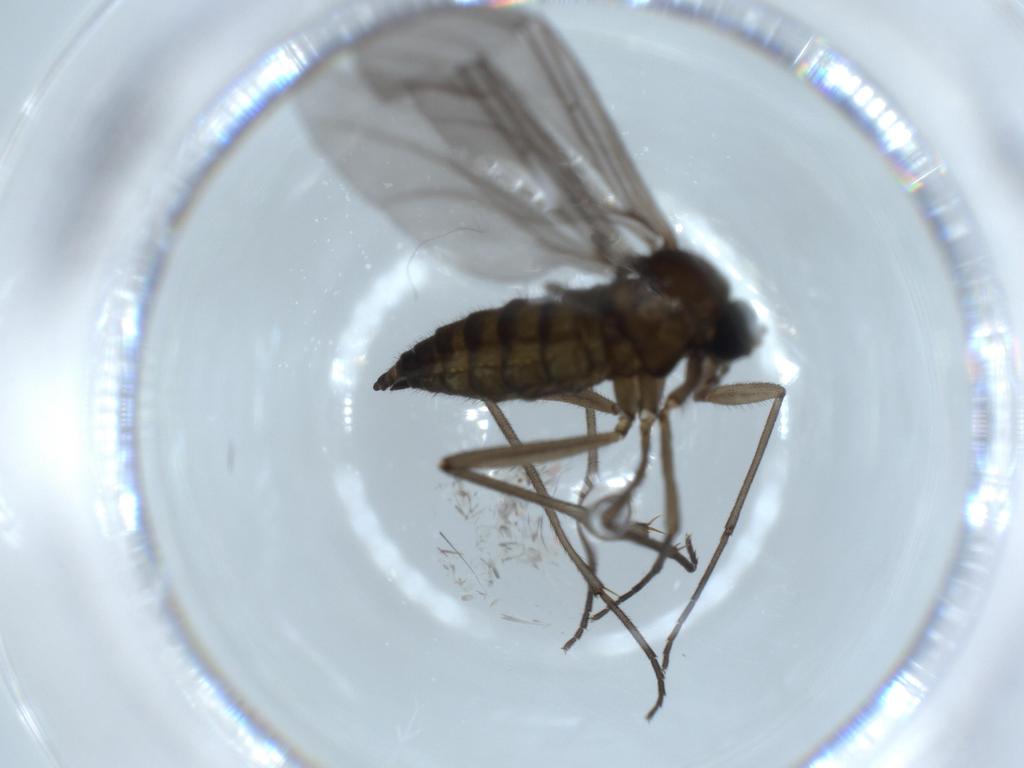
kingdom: Animalia
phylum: Arthropoda
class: Insecta
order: Diptera
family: Sciaridae
